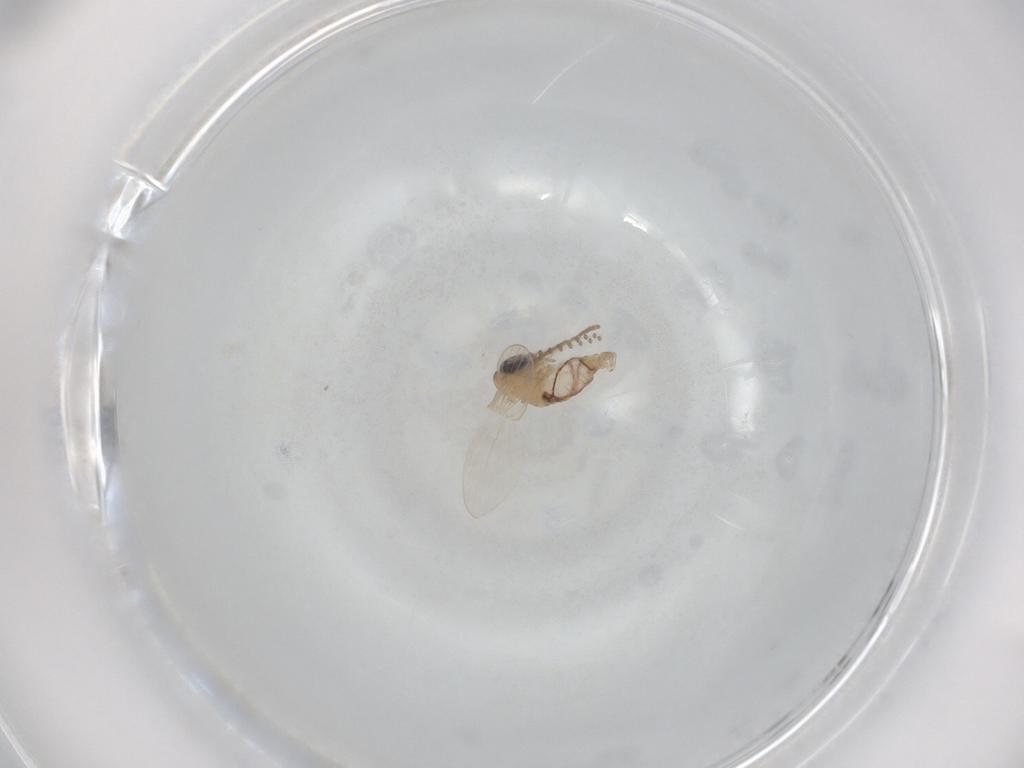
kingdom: Animalia
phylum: Arthropoda
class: Insecta
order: Diptera
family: Psychodidae
